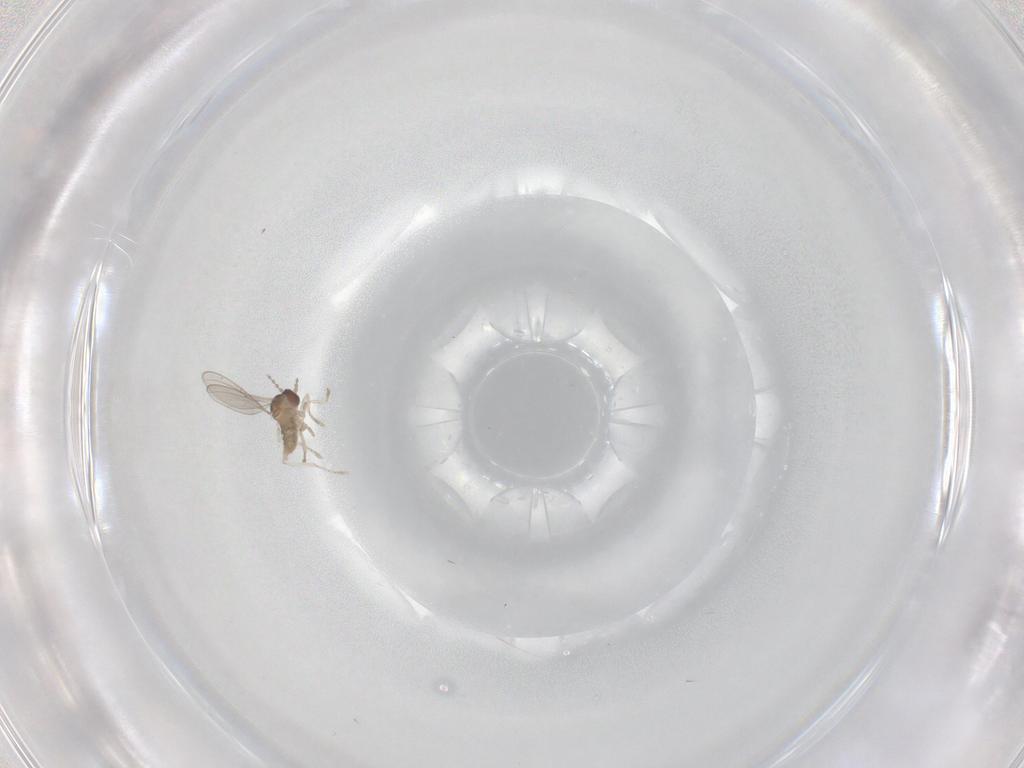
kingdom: Animalia
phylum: Arthropoda
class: Insecta
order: Diptera
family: Cecidomyiidae
